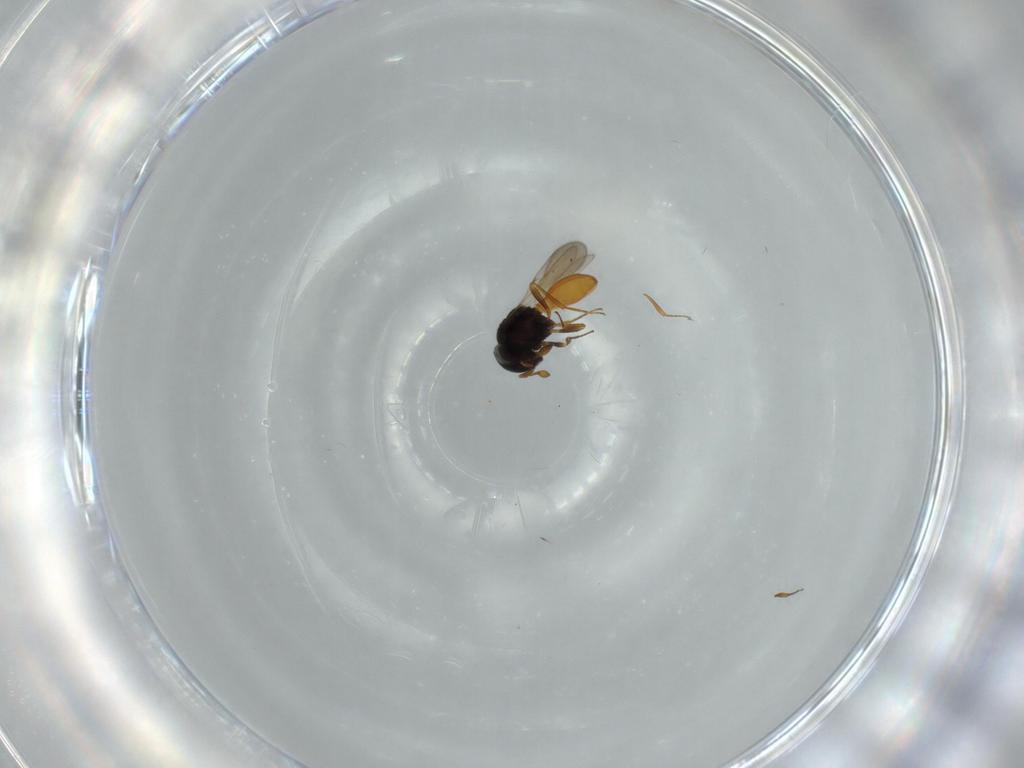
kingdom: Animalia
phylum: Arthropoda
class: Insecta
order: Hymenoptera
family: Scelionidae
